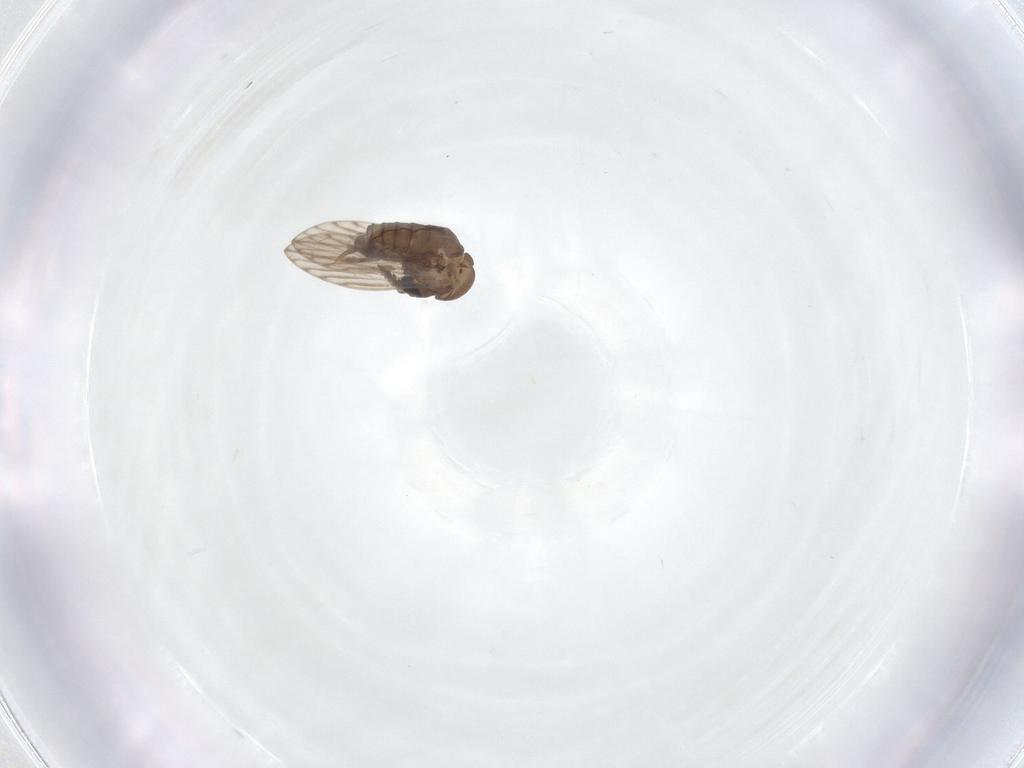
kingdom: Animalia
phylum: Arthropoda
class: Insecta
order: Diptera
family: Psychodidae
